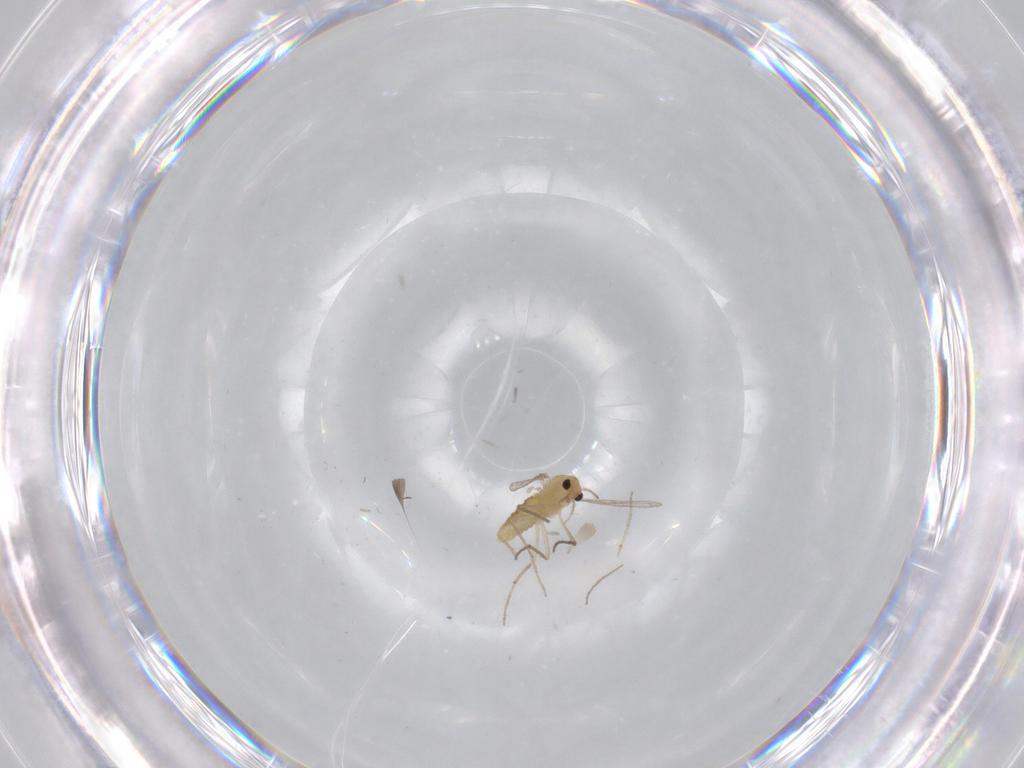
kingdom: Animalia
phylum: Arthropoda
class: Insecta
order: Diptera
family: Chironomidae
